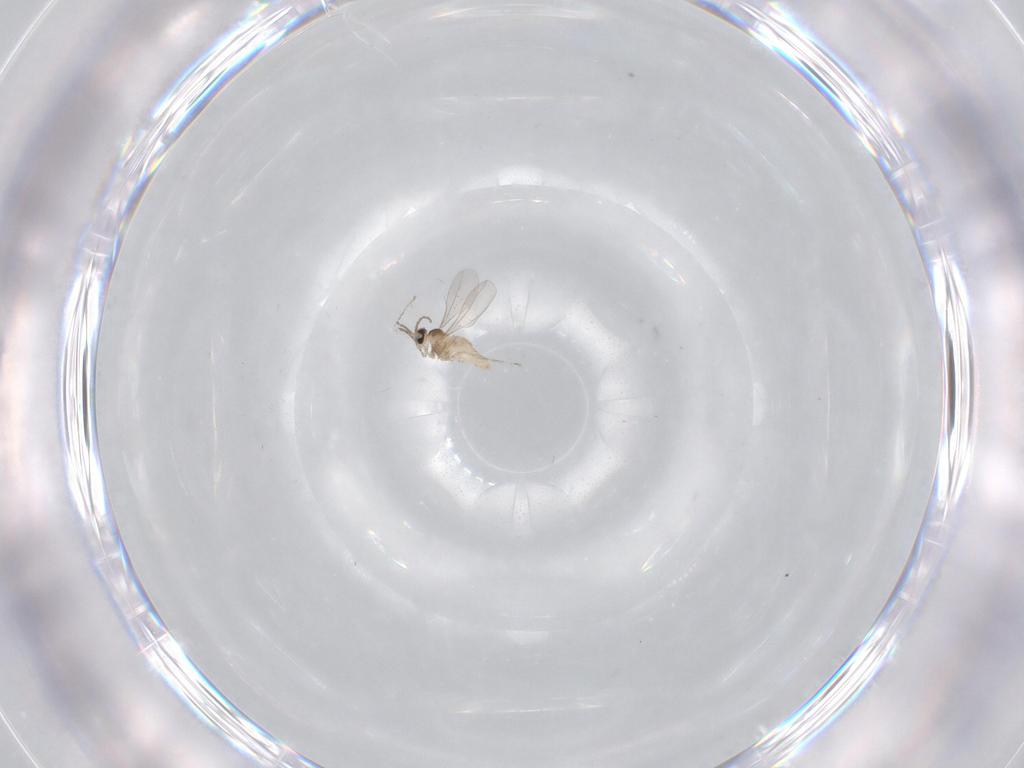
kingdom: Animalia
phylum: Arthropoda
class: Insecta
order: Diptera
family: Cecidomyiidae
